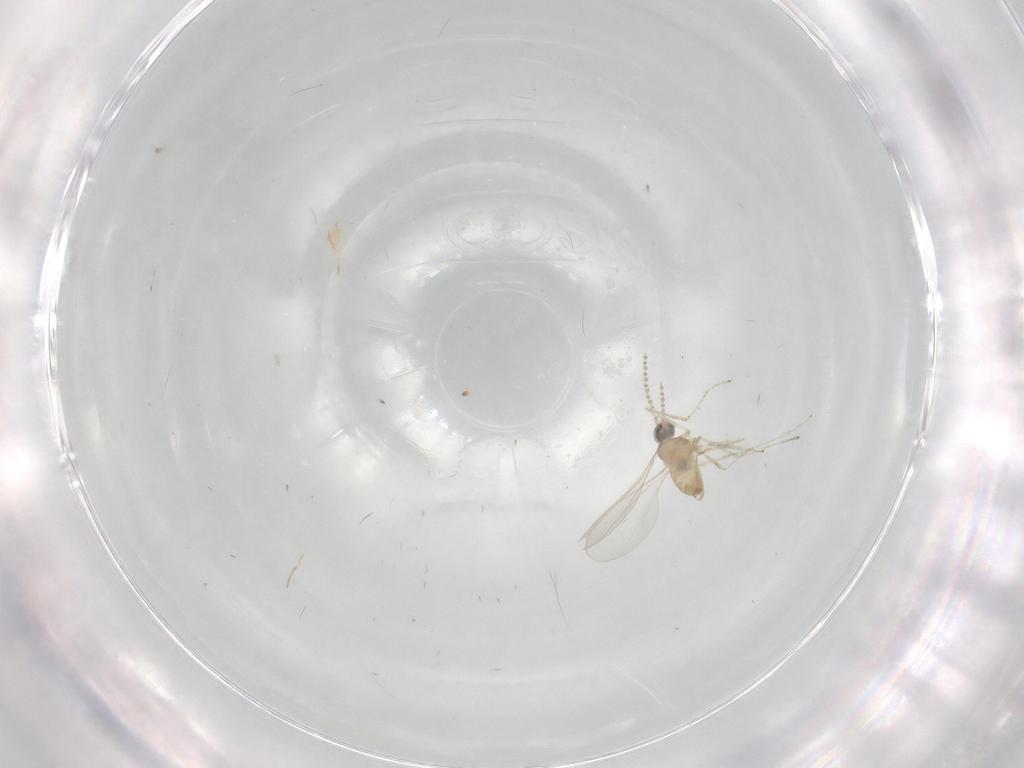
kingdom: Animalia
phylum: Arthropoda
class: Insecta
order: Diptera
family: Cecidomyiidae
